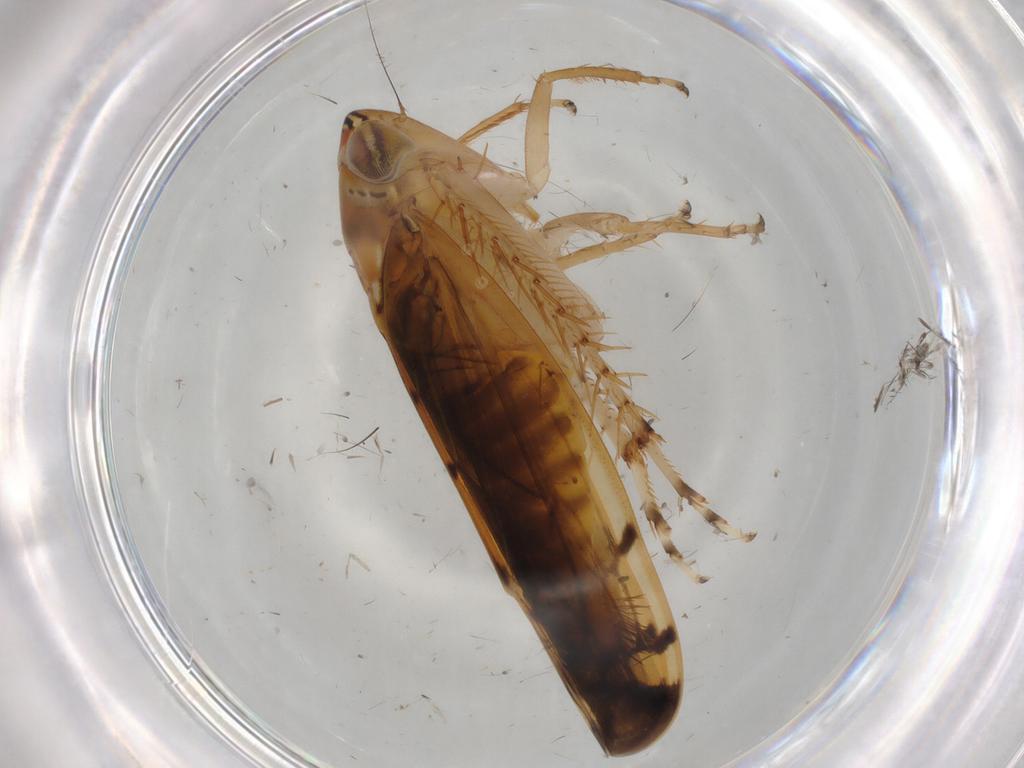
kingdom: Animalia
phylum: Arthropoda
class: Insecta
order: Hemiptera
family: Cicadellidae
